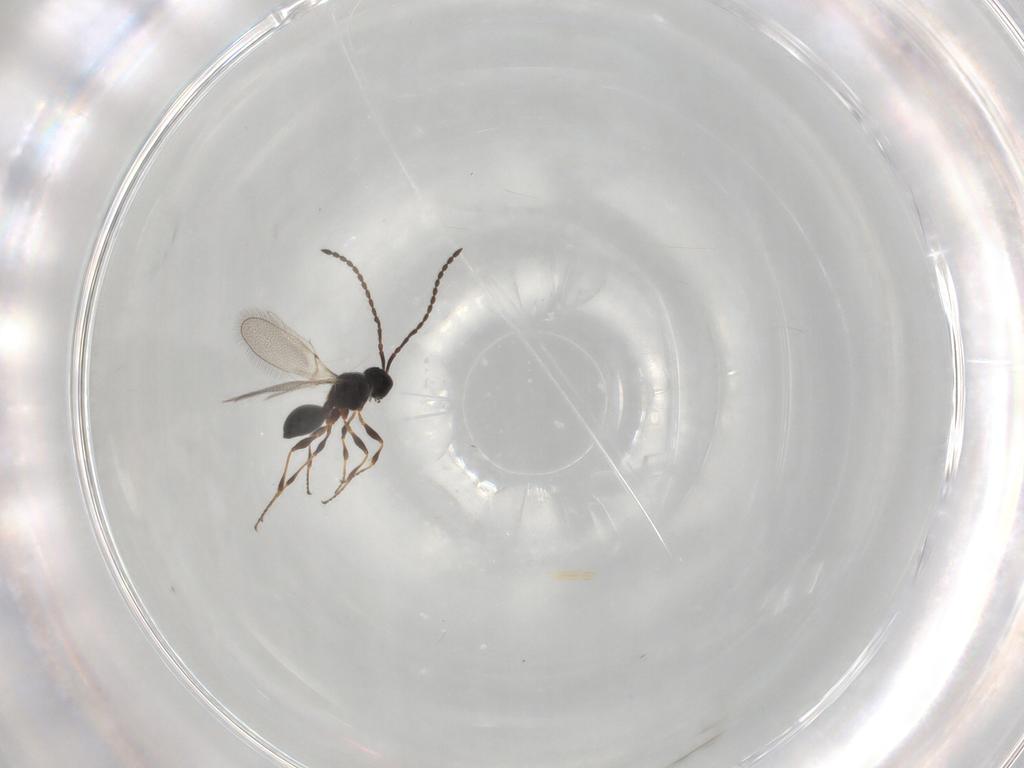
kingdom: Animalia
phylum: Arthropoda
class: Insecta
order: Hymenoptera
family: Diapriidae
